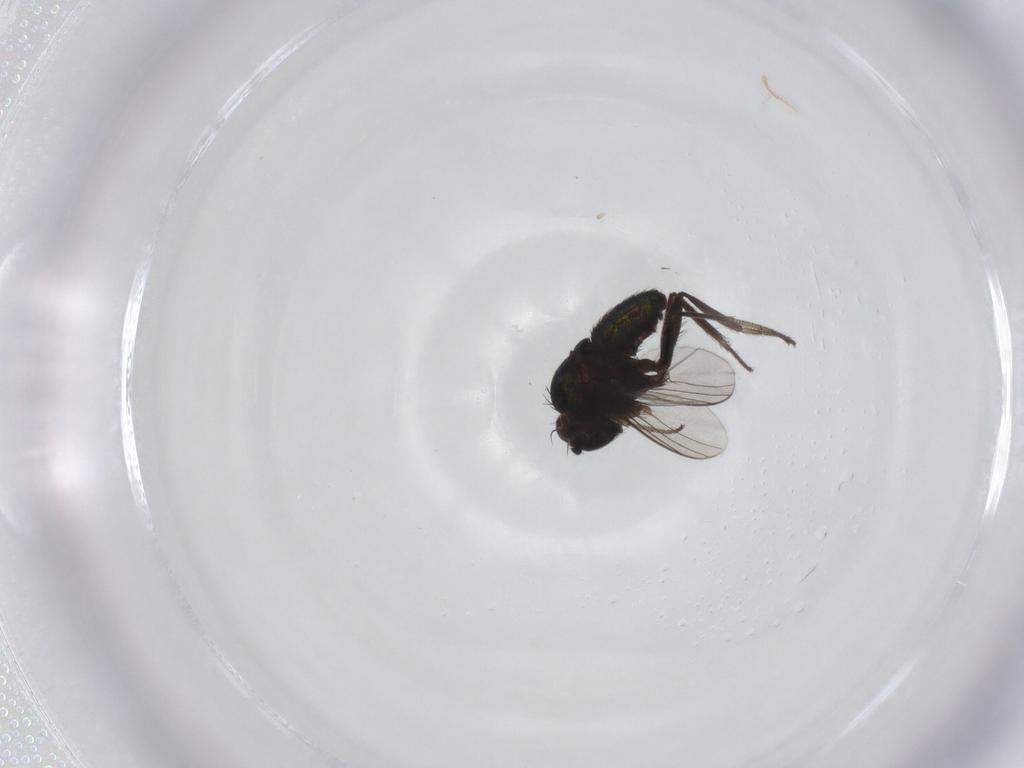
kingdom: Animalia
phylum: Arthropoda
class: Insecta
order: Diptera
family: Dolichopodidae
